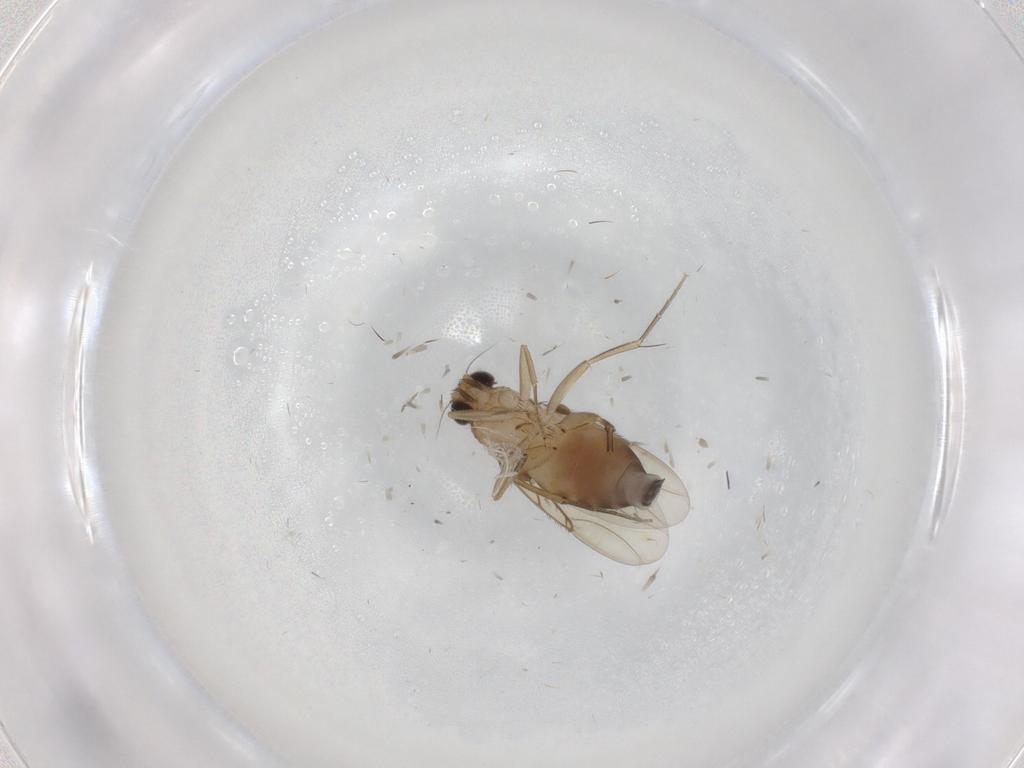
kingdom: Animalia
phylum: Arthropoda
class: Insecta
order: Diptera
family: Phoridae
